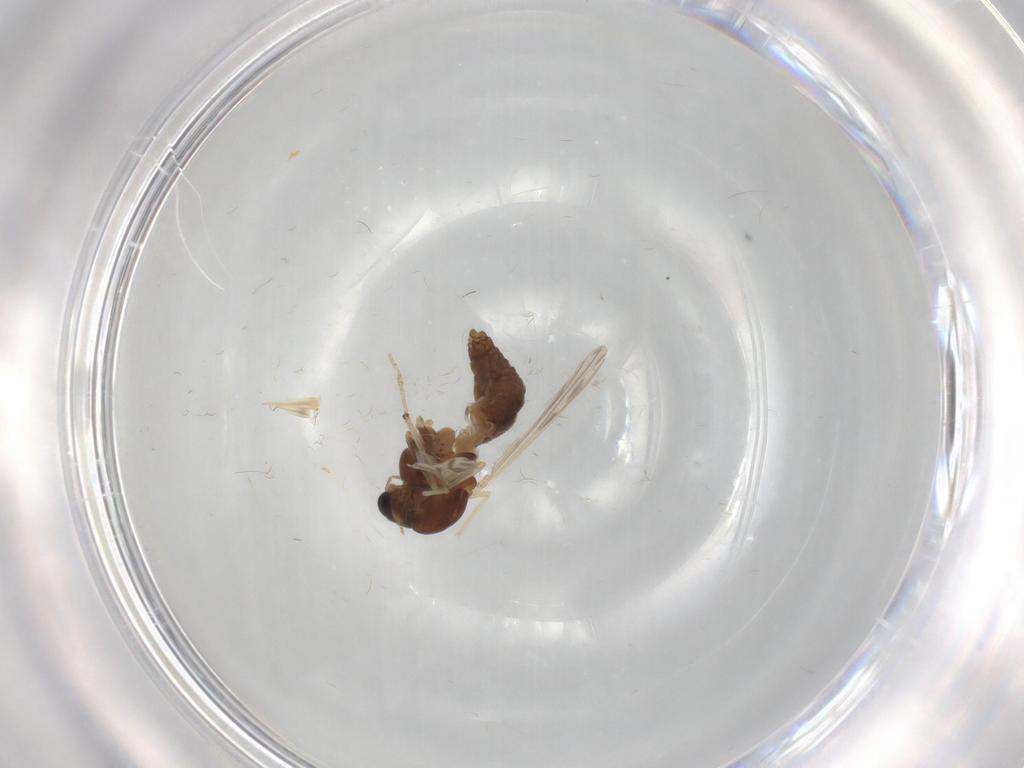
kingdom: Animalia
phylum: Arthropoda
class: Insecta
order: Diptera
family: Chironomidae
